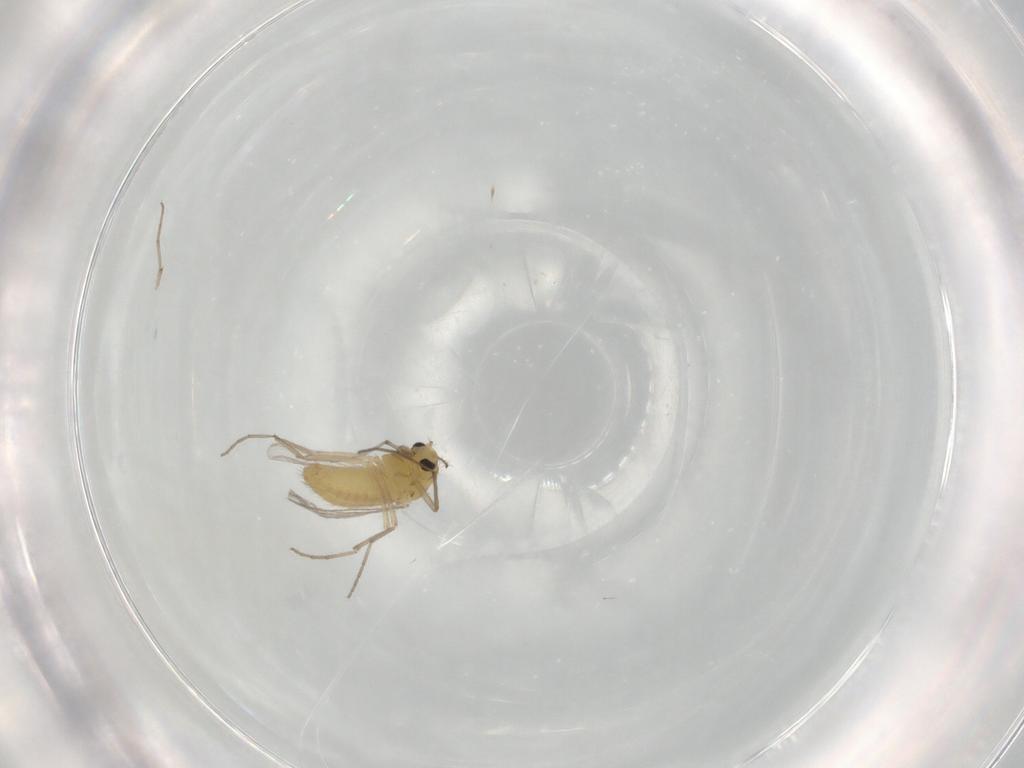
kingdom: Animalia
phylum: Arthropoda
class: Insecta
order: Diptera
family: Chironomidae
